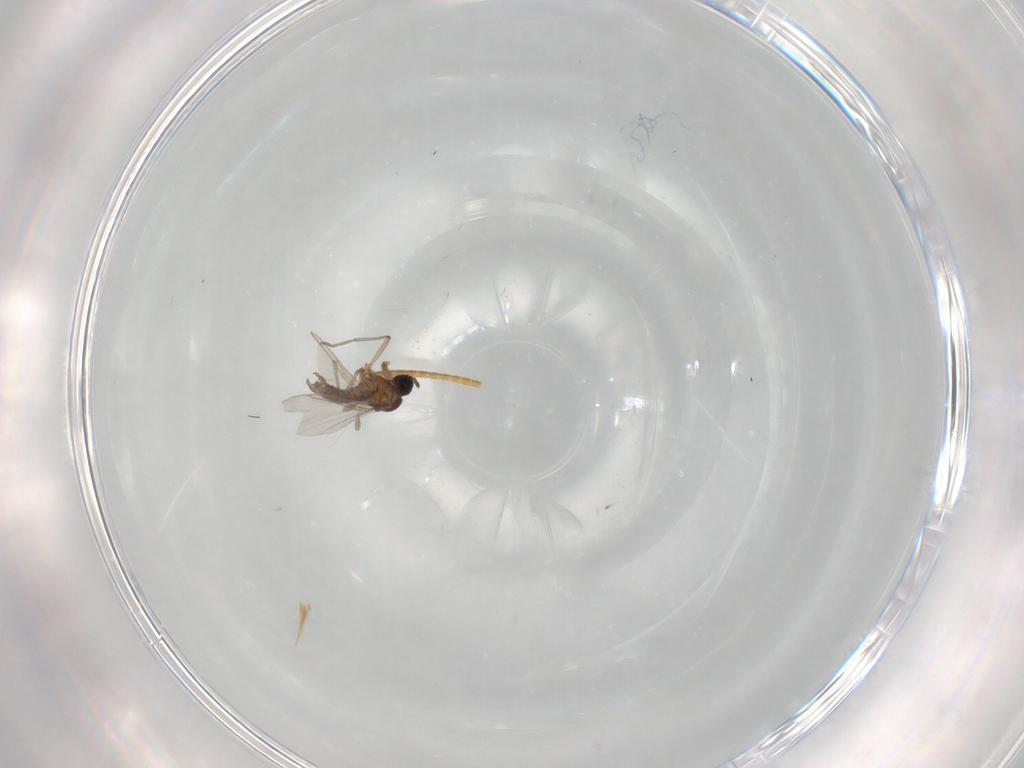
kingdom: Animalia
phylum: Arthropoda
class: Insecta
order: Diptera
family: Sciaridae
